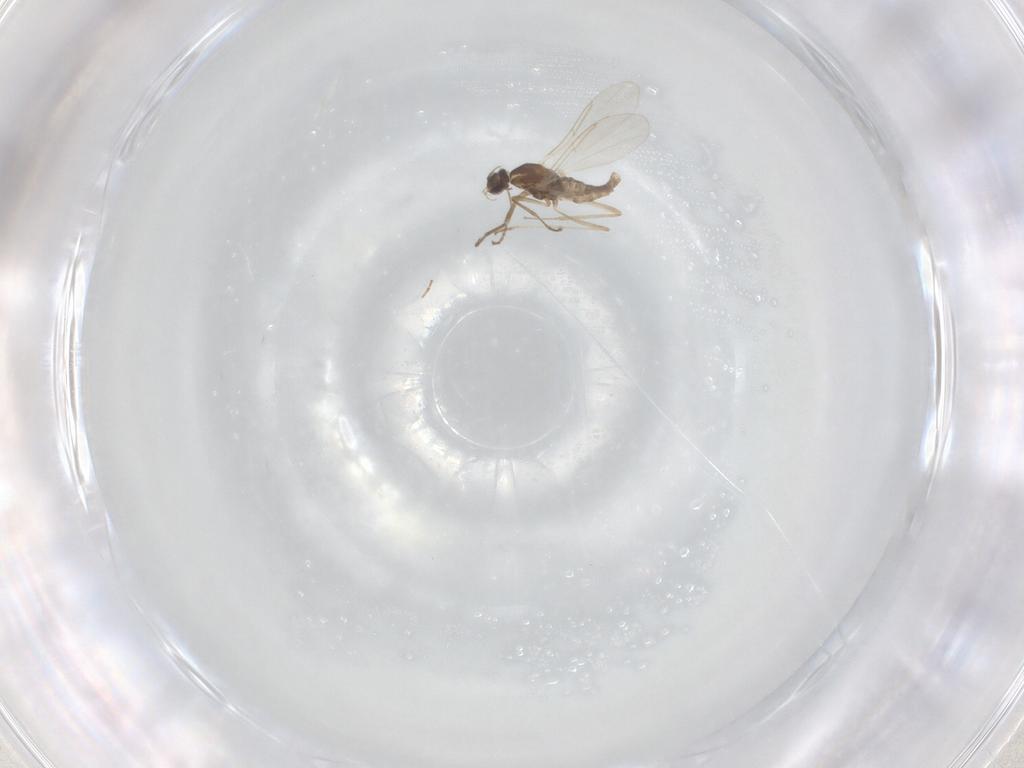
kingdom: Animalia
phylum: Arthropoda
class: Insecta
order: Diptera
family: Cecidomyiidae
